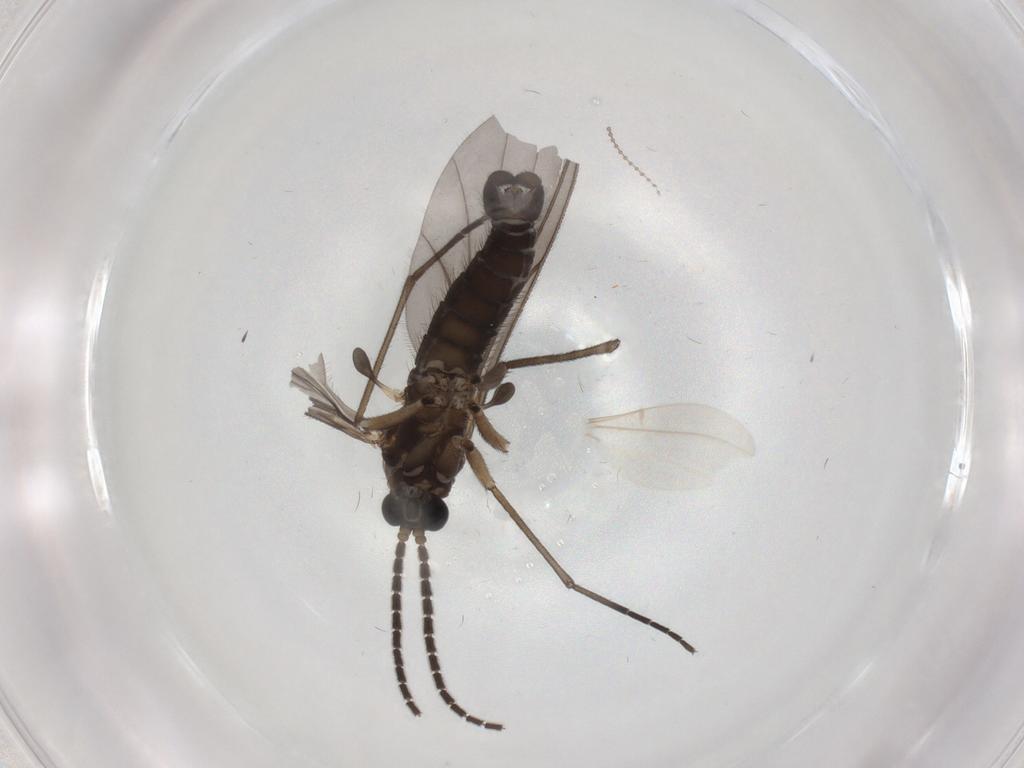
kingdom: Animalia
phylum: Arthropoda
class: Insecta
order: Diptera
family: Sciaridae
